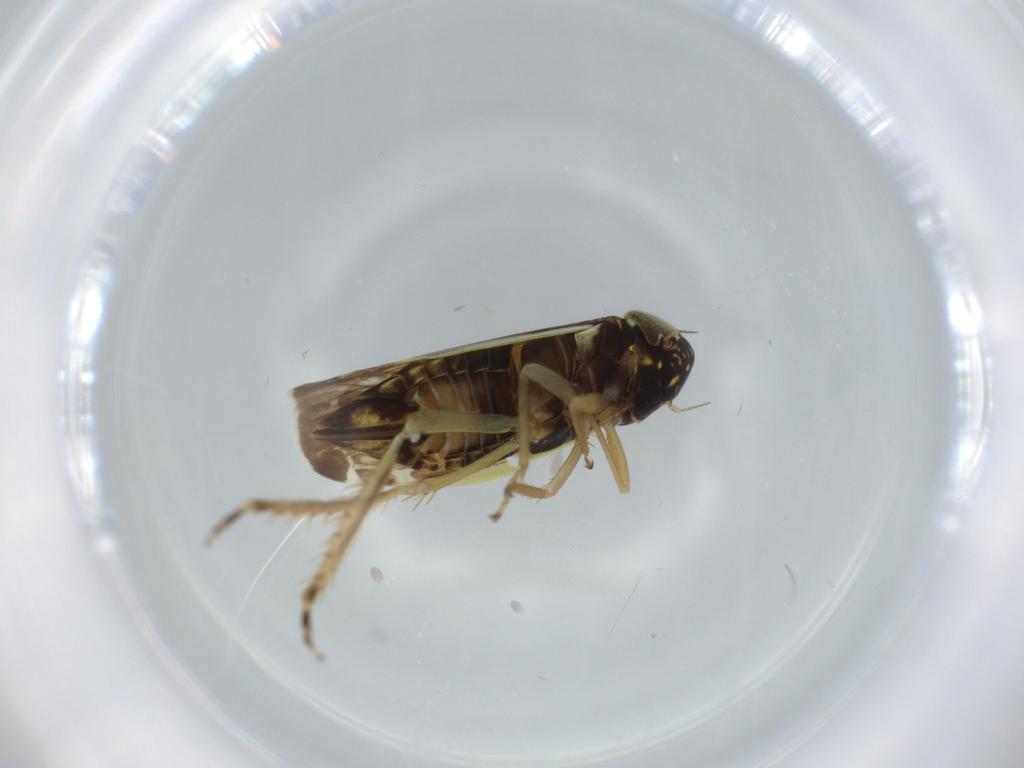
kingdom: Animalia
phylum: Arthropoda
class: Insecta
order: Hemiptera
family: Cicadellidae
